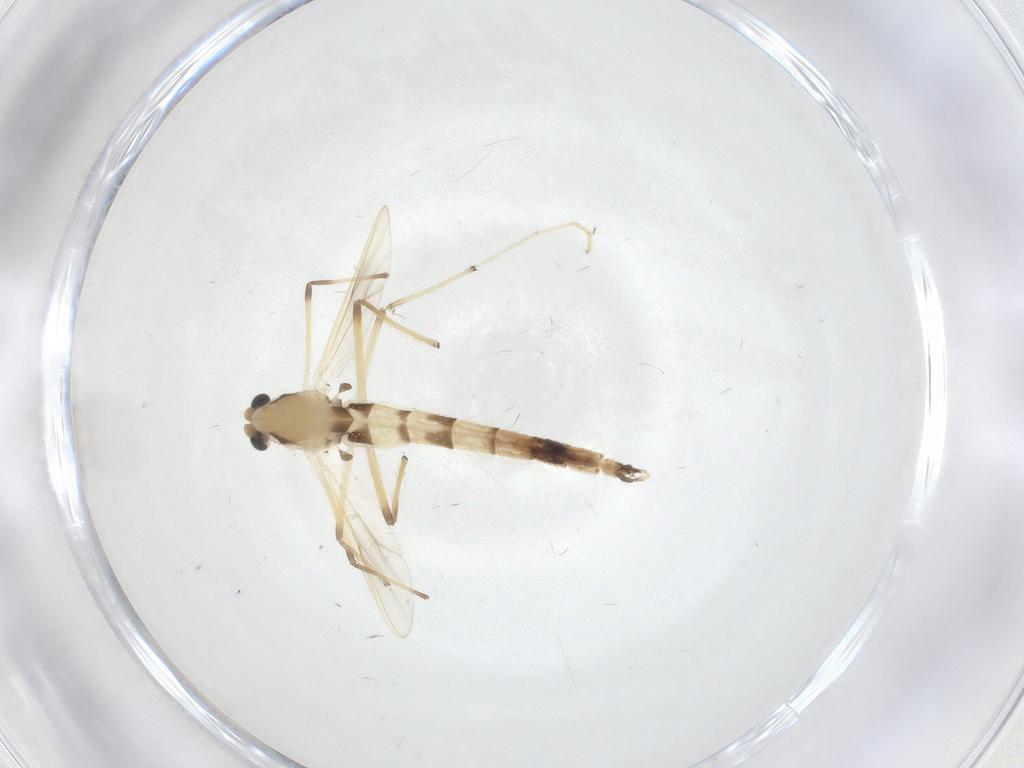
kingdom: Animalia
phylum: Arthropoda
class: Insecta
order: Diptera
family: Chironomidae
